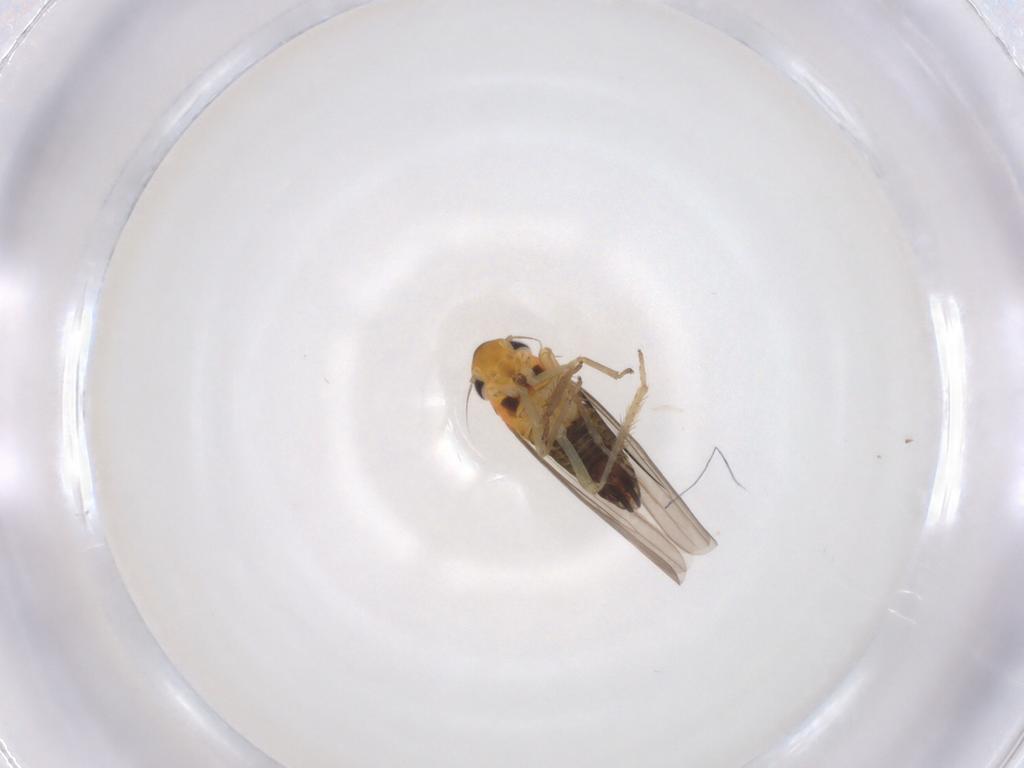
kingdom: Animalia
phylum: Arthropoda
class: Insecta
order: Hemiptera
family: Cicadellidae
